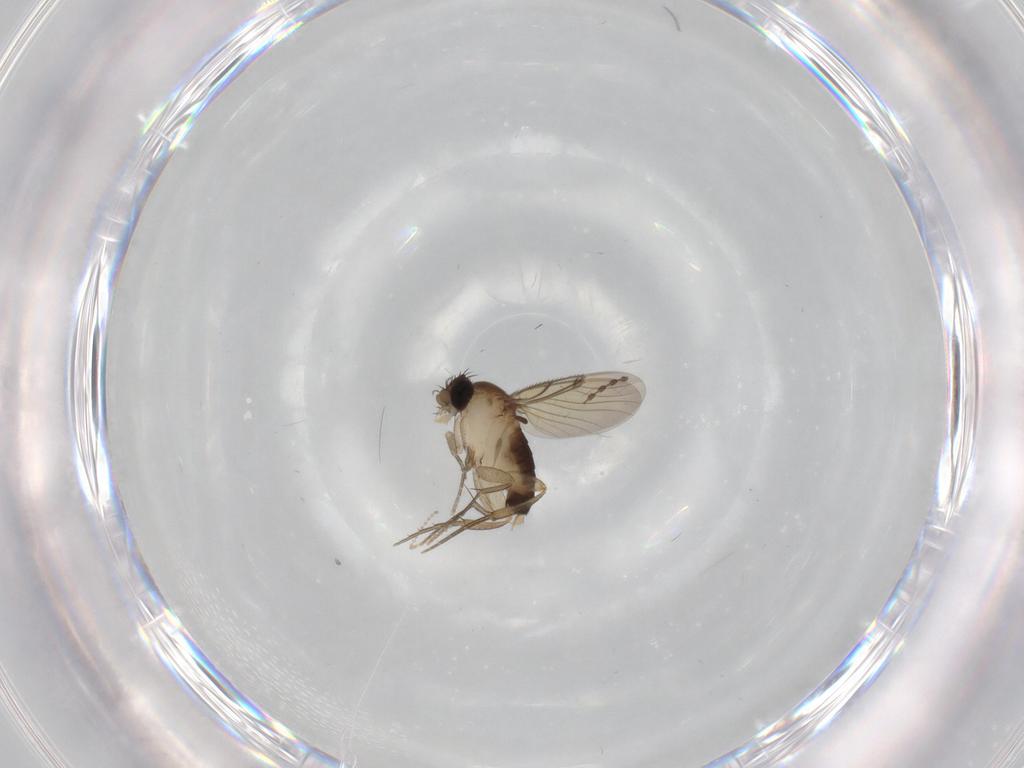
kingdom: Animalia
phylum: Arthropoda
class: Insecta
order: Diptera
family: Cecidomyiidae
